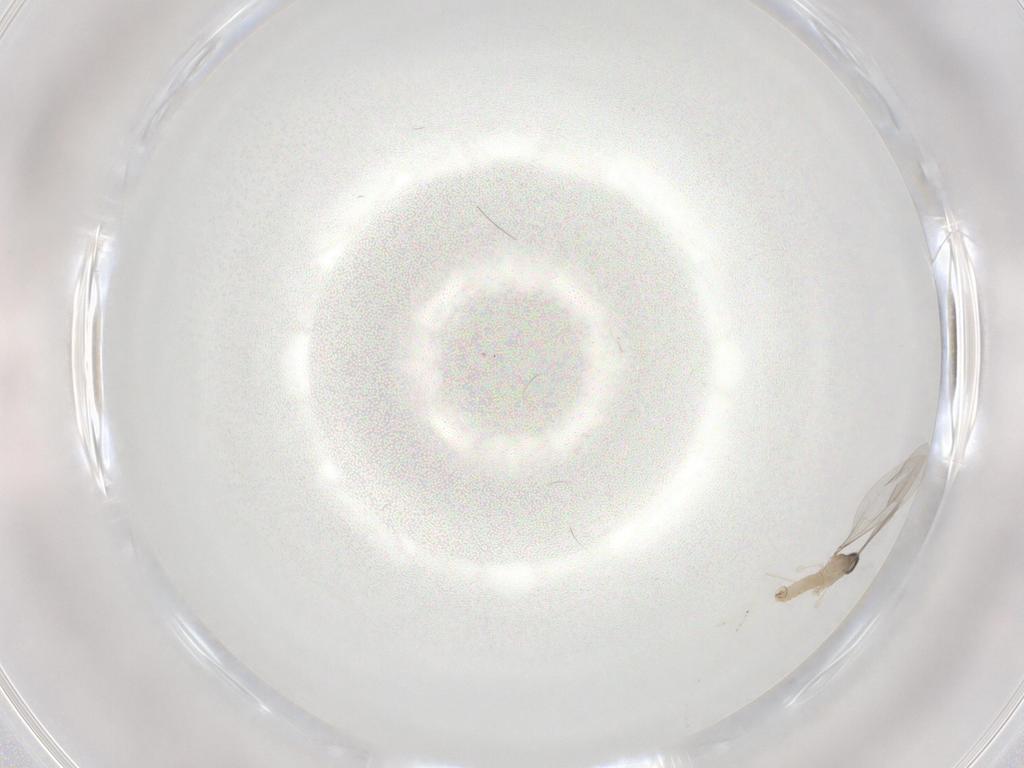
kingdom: Animalia
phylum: Arthropoda
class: Insecta
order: Diptera
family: Cecidomyiidae
